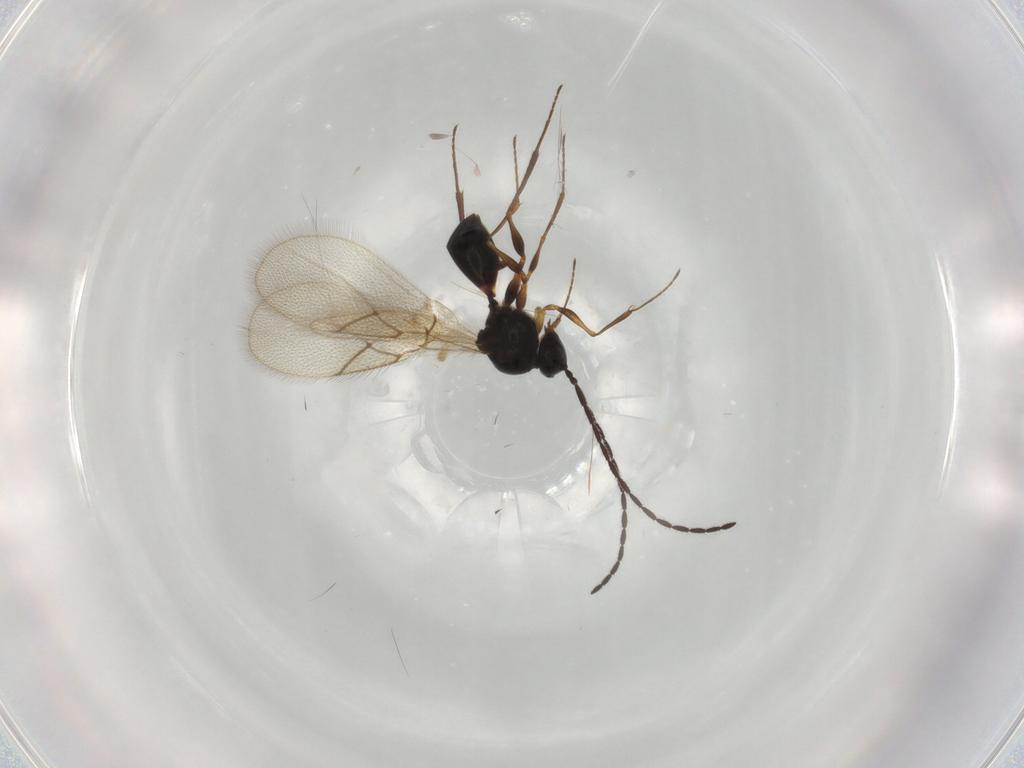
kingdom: Animalia
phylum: Arthropoda
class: Insecta
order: Hymenoptera
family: Figitidae
